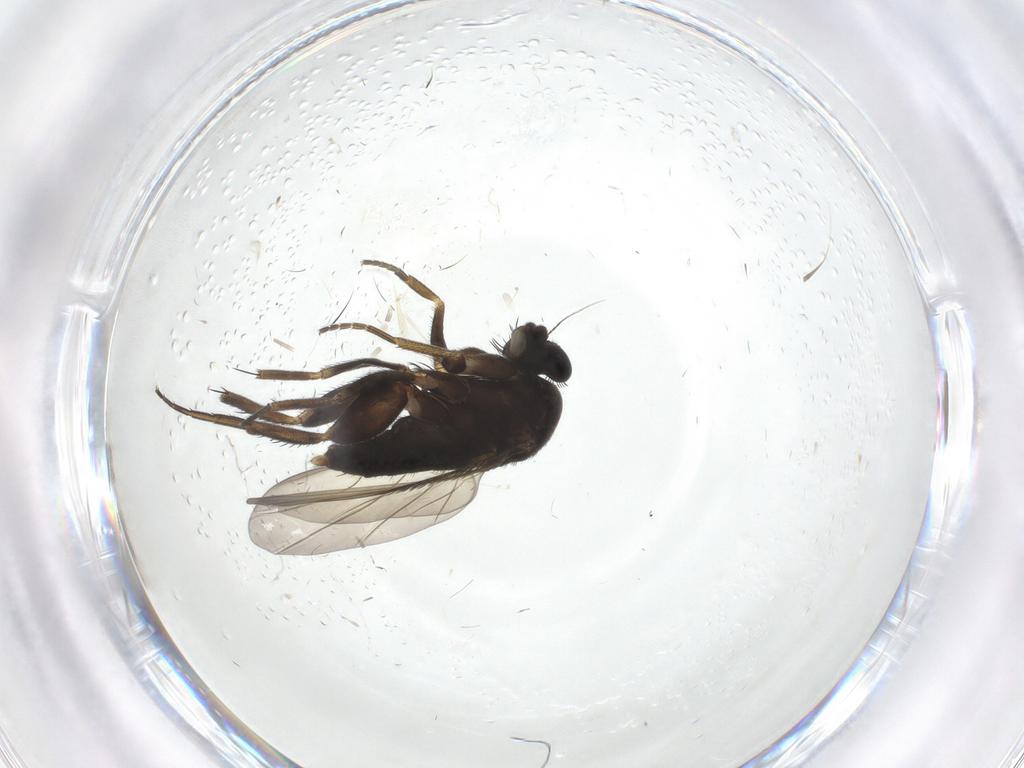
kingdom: Animalia
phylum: Arthropoda
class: Insecta
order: Diptera
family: Phoridae
